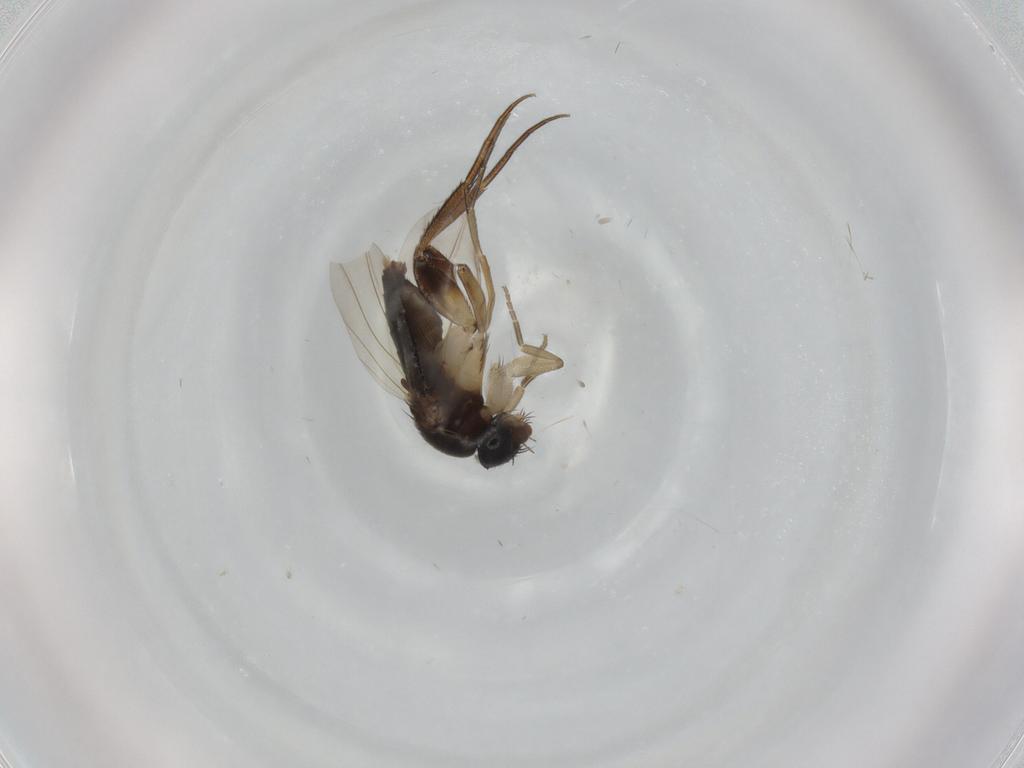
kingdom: Animalia
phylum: Arthropoda
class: Insecta
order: Diptera
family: Phoridae
